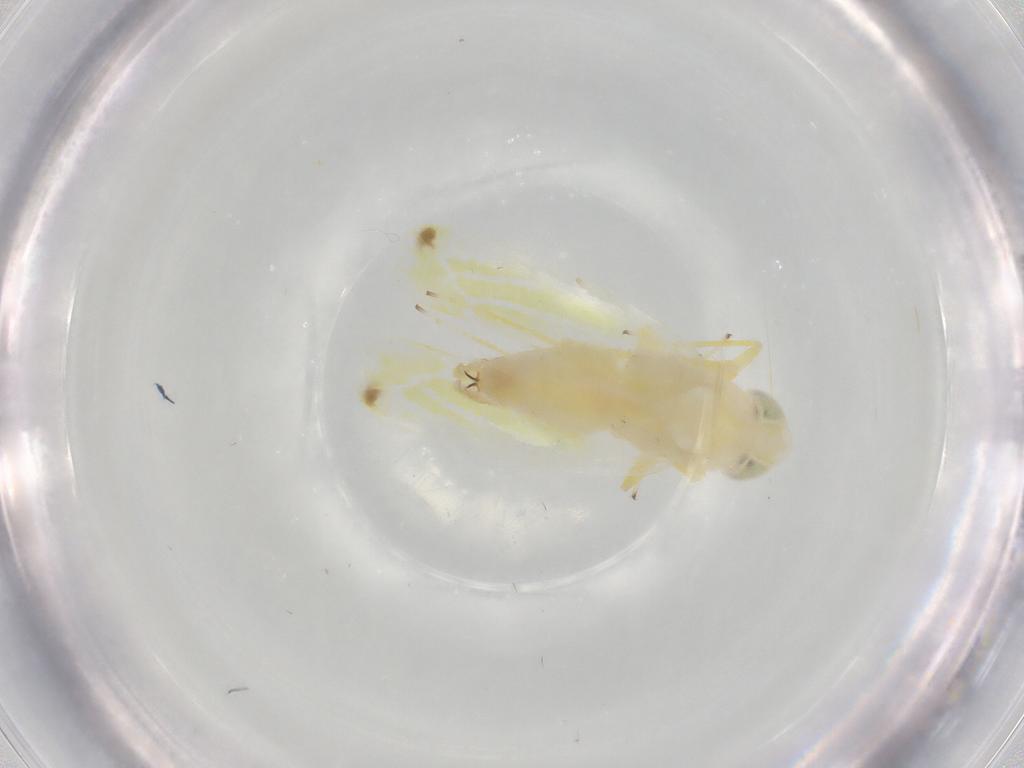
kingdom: Animalia
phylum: Arthropoda
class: Insecta
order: Hemiptera
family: Cicadellidae
